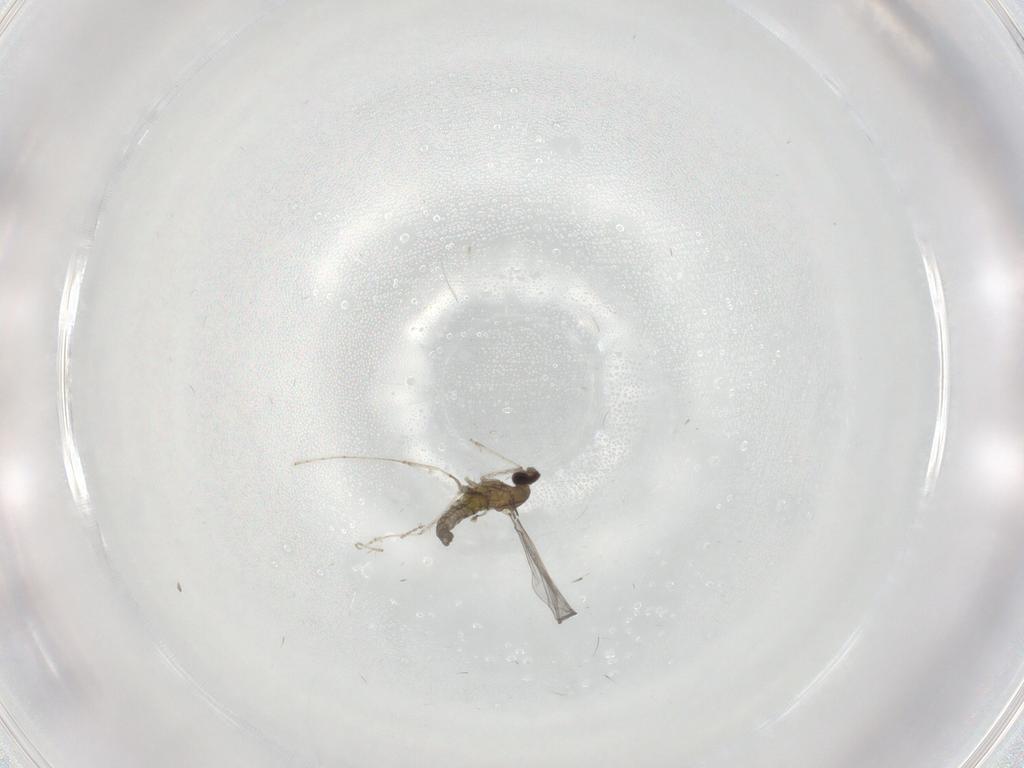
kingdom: Animalia
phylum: Arthropoda
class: Insecta
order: Diptera
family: Cecidomyiidae
